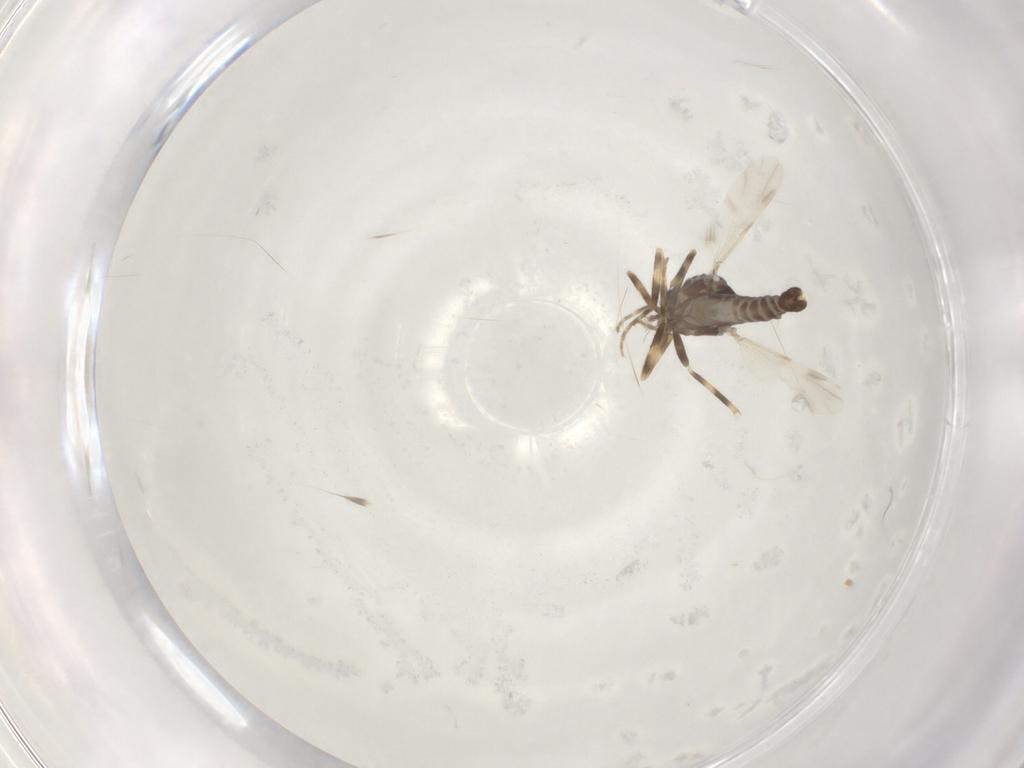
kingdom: Animalia
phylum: Arthropoda
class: Insecta
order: Diptera
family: Ceratopogonidae
